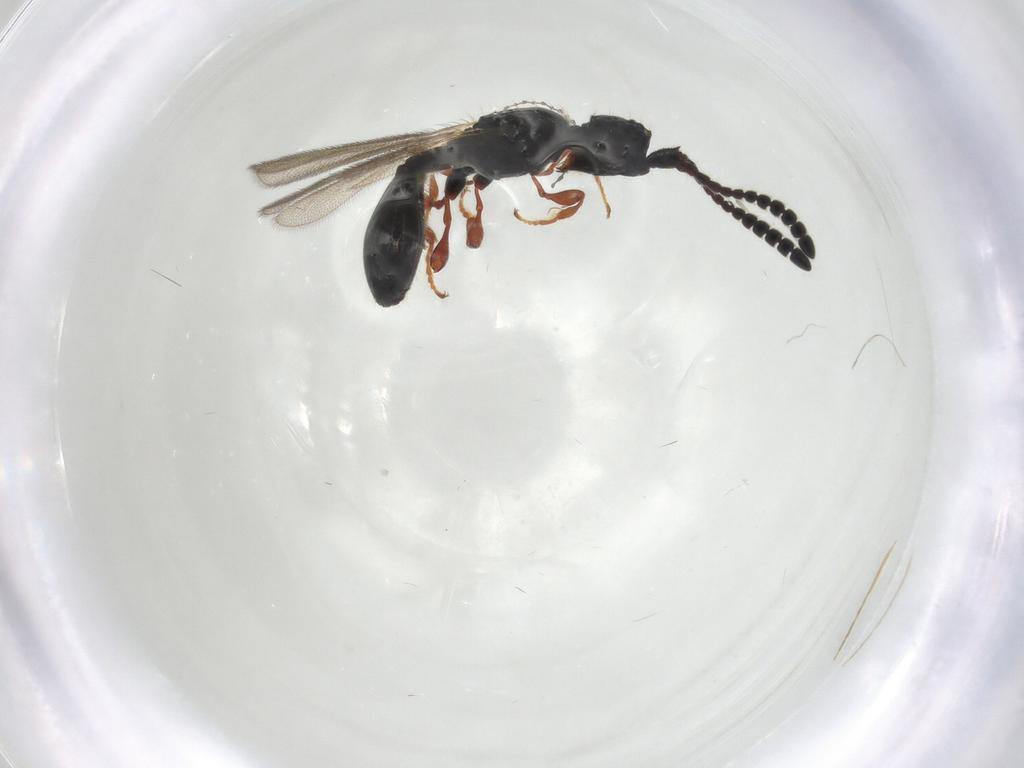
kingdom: Animalia
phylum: Arthropoda
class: Insecta
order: Hymenoptera
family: Diapriidae
